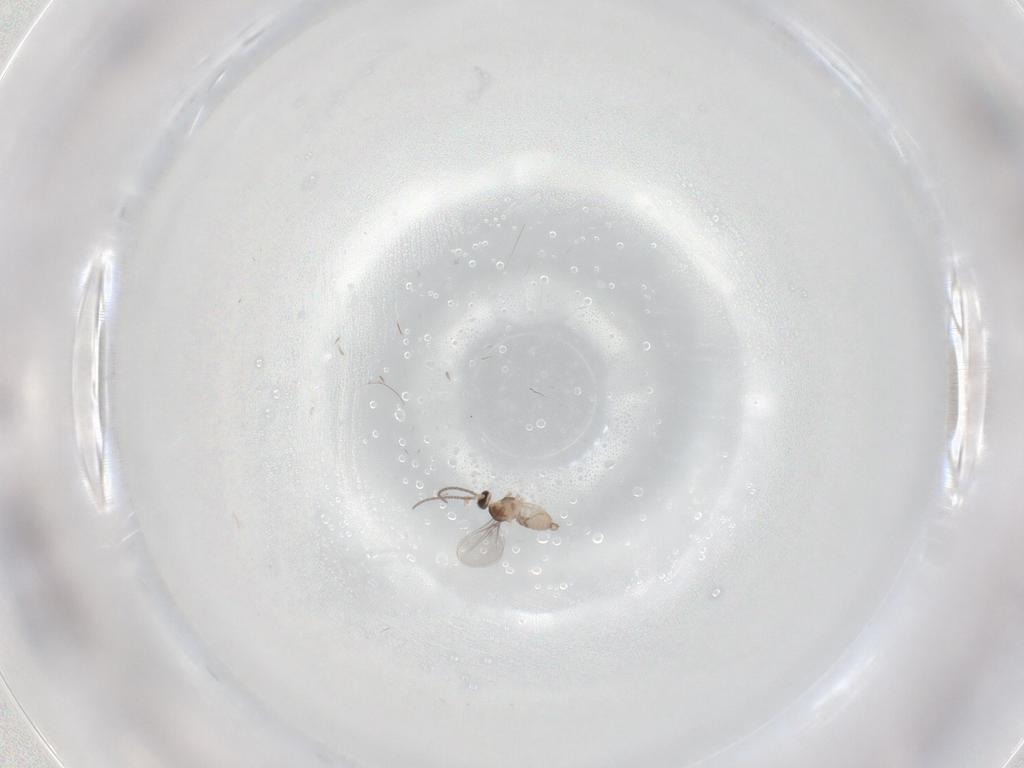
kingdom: Animalia
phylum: Arthropoda
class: Insecta
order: Diptera
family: Cecidomyiidae
